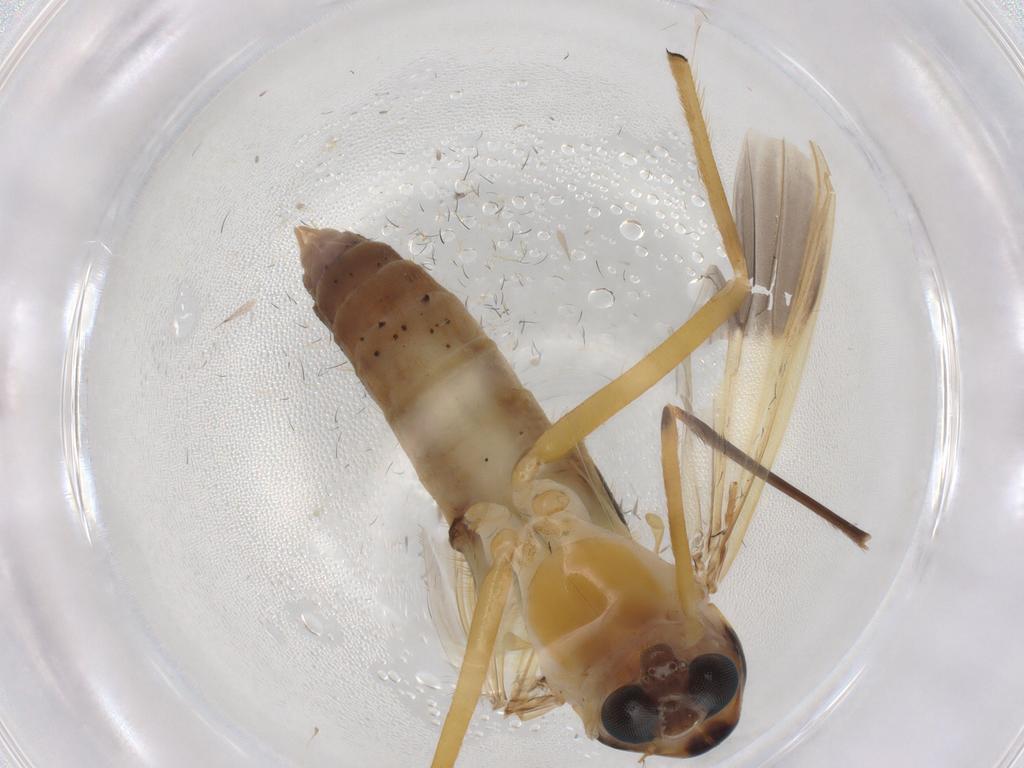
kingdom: Animalia
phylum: Arthropoda
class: Insecta
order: Diptera
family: Chironomidae
